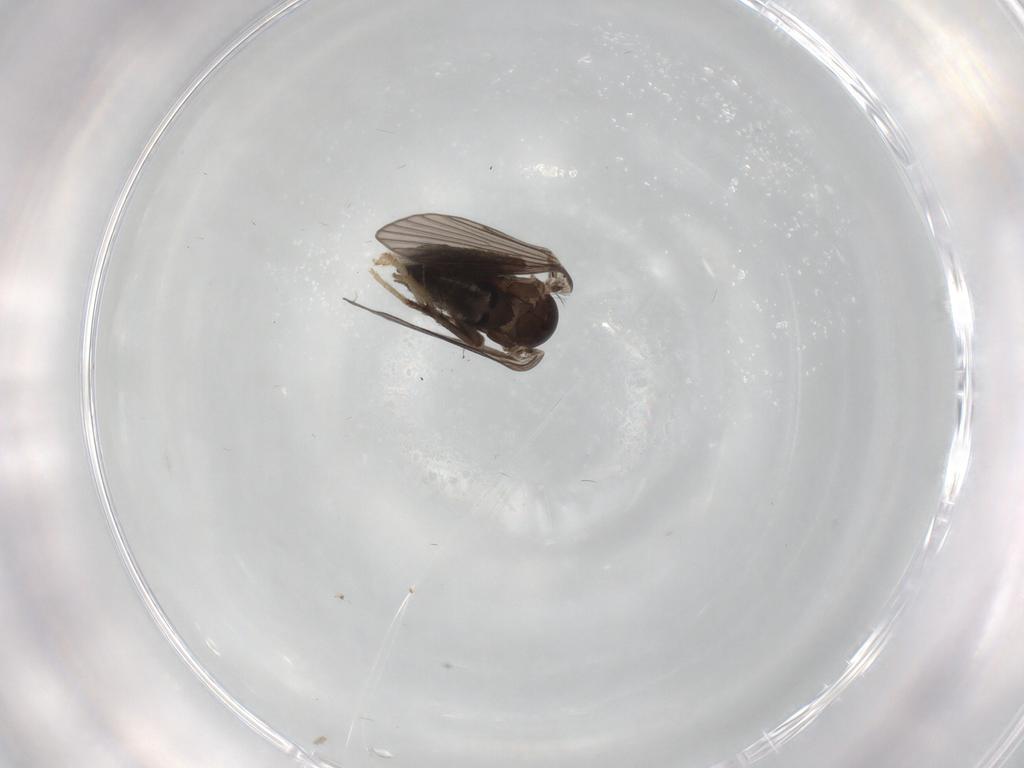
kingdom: Animalia
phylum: Arthropoda
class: Insecta
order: Diptera
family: Psychodidae
